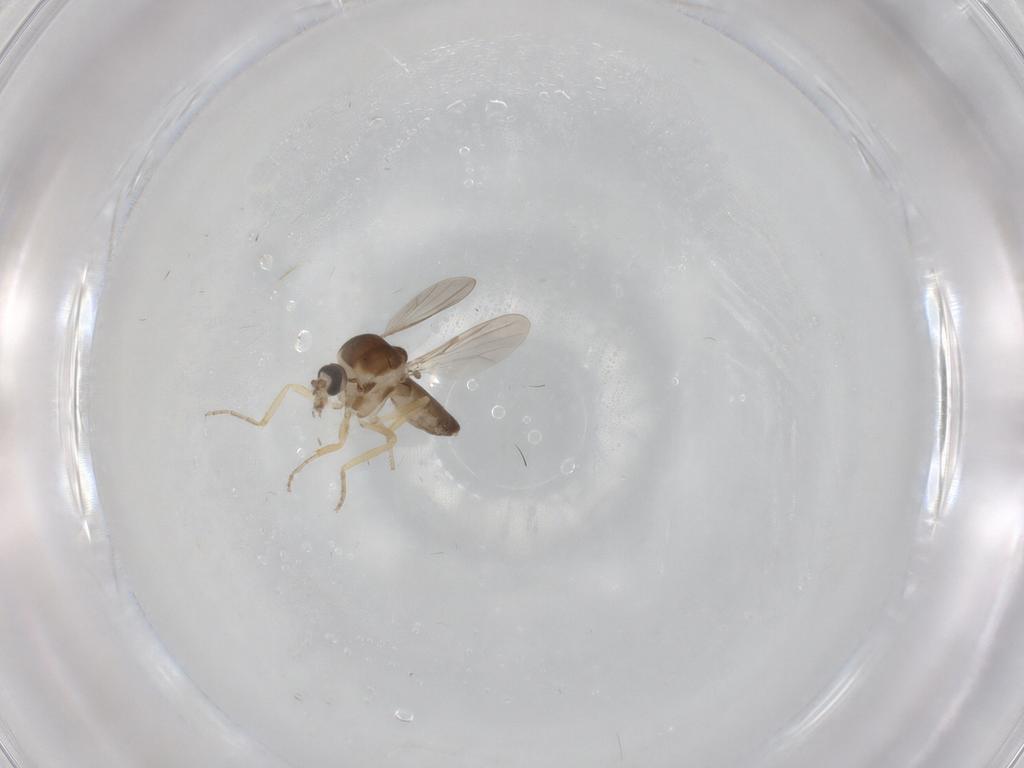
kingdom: Animalia
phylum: Arthropoda
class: Insecta
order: Diptera
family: Ceratopogonidae
